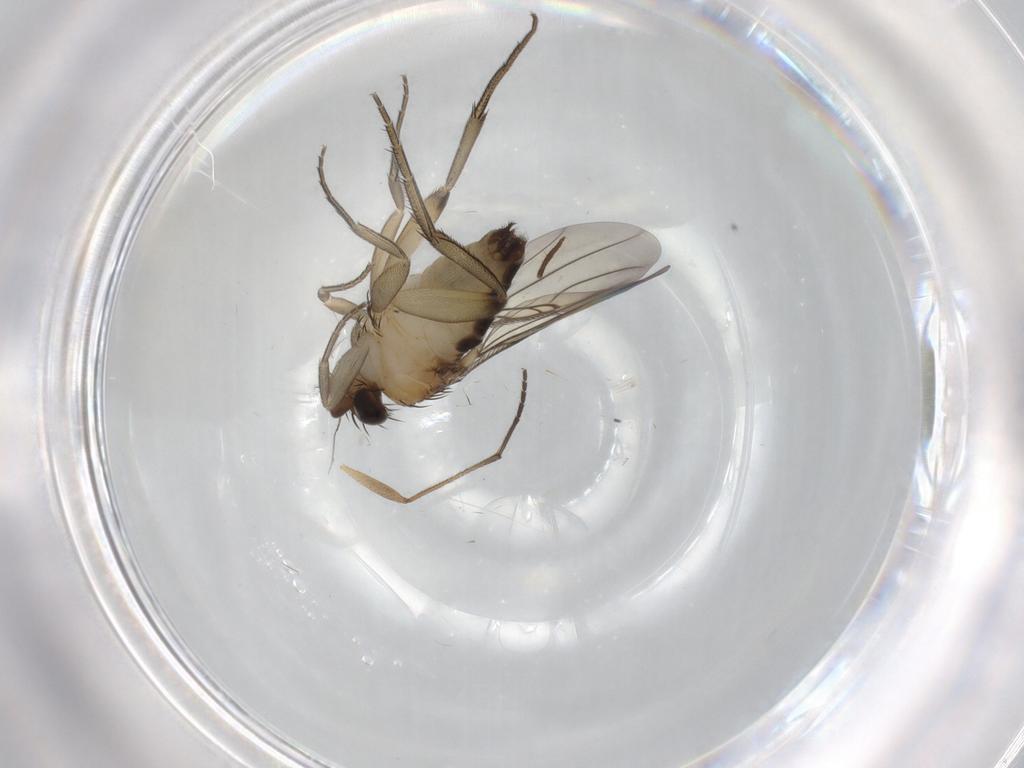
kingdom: Animalia
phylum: Arthropoda
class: Insecta
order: Diptera
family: Phoridae
